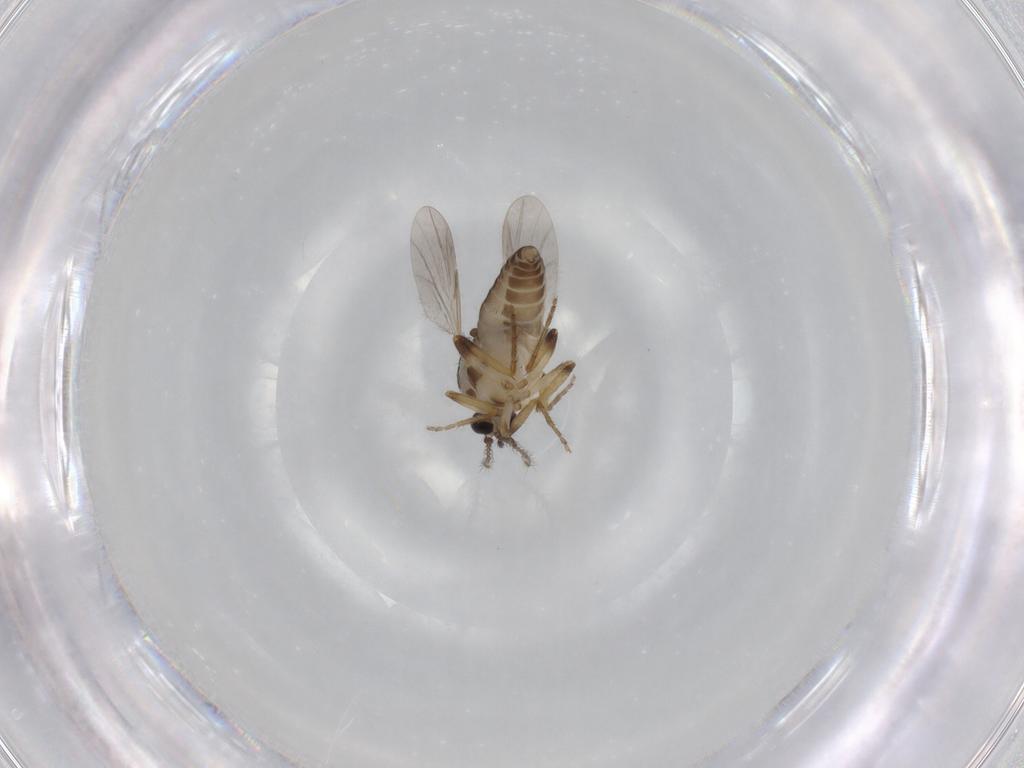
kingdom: Animalia
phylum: Arthropoda
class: Insecta
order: Diptera
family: Ceratopogonidae
